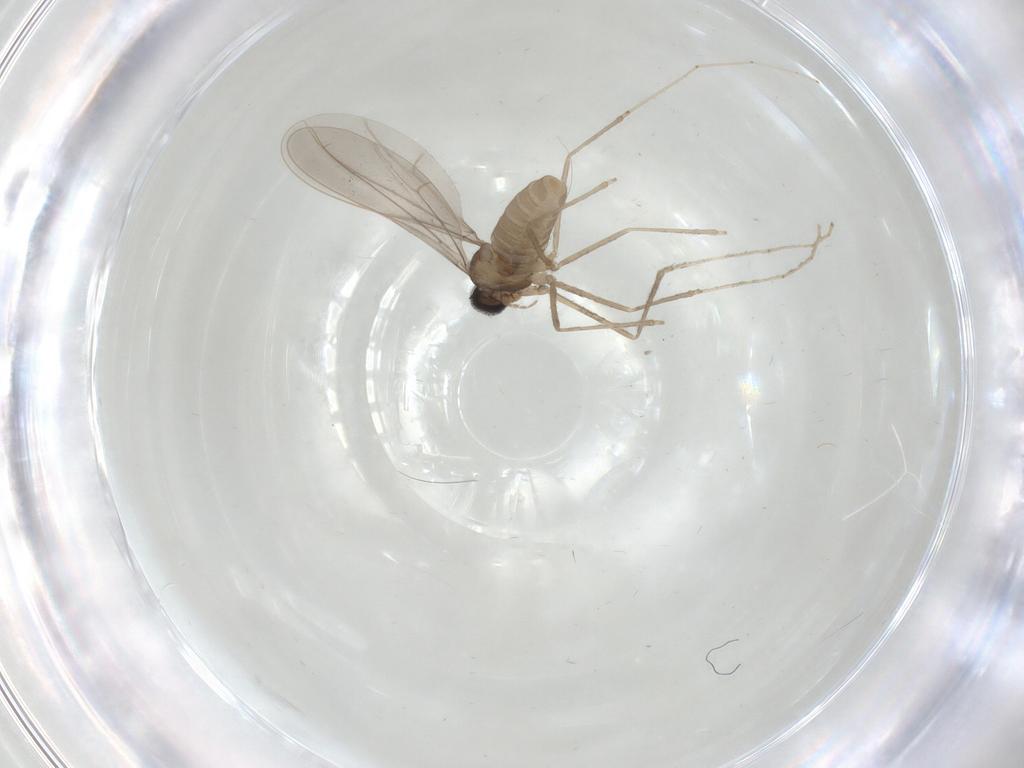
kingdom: Animalia
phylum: Arthropoda
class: Insecta
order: Diptera
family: Cecidomyiidae
